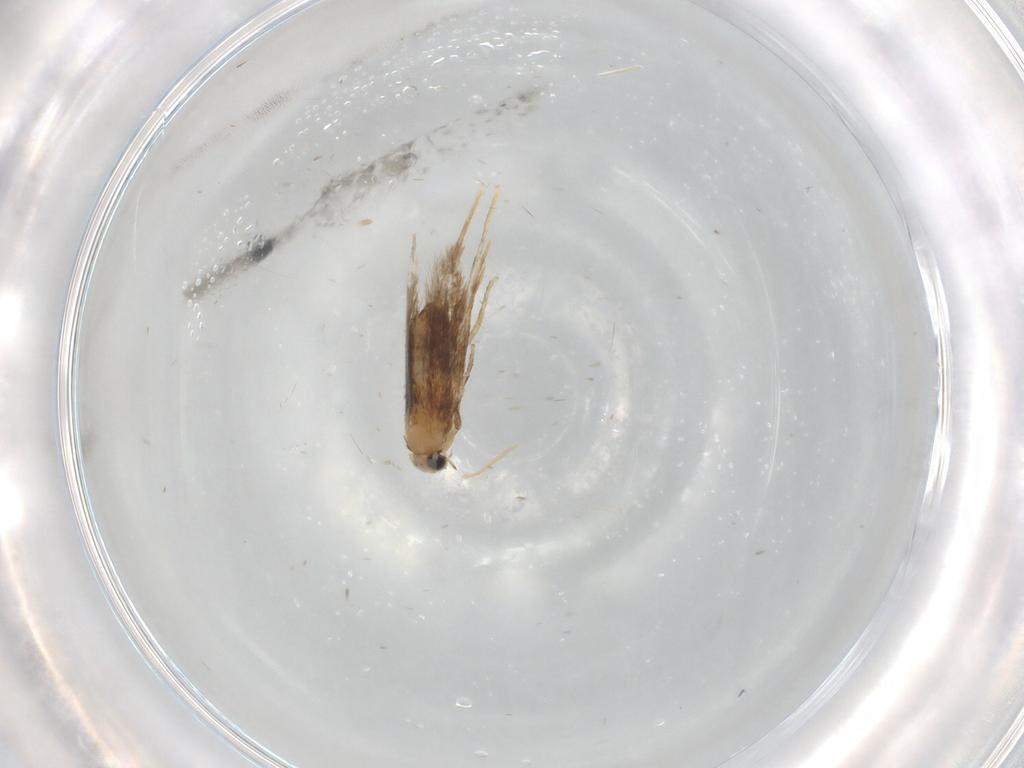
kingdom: Animalia
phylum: Arthropoda
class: Insecta
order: Lepidoptera
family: Nepticulidae
